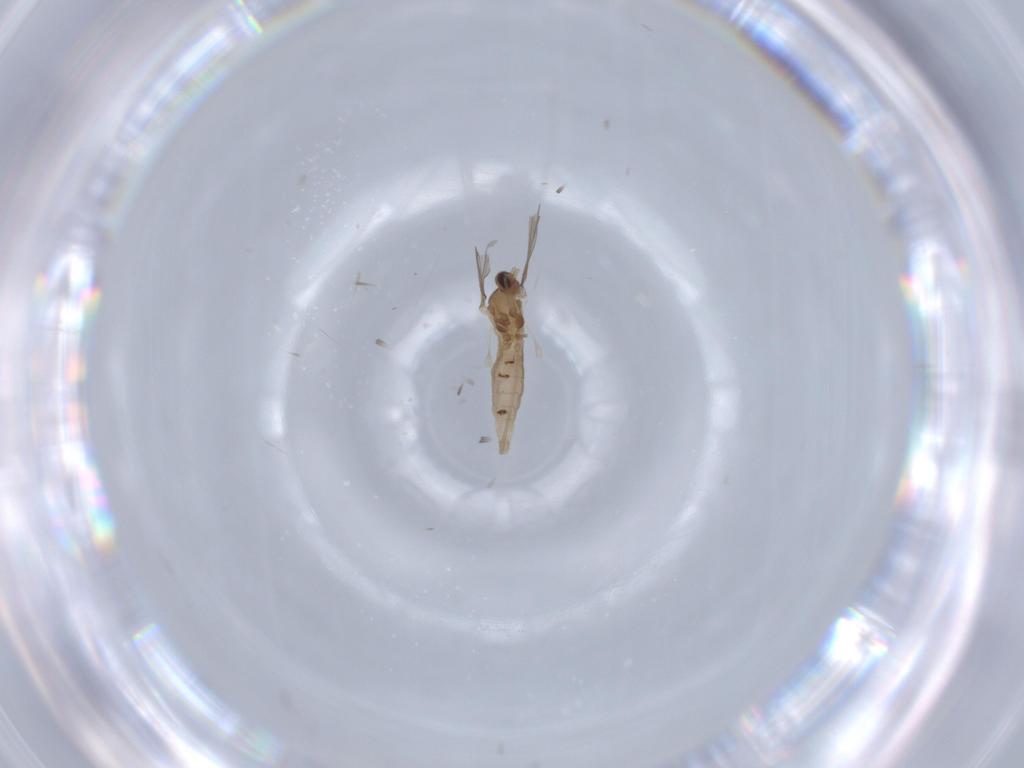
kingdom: Animalia
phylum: Arthropoda
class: Insecta
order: Diptera
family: Cecidomyiidae
